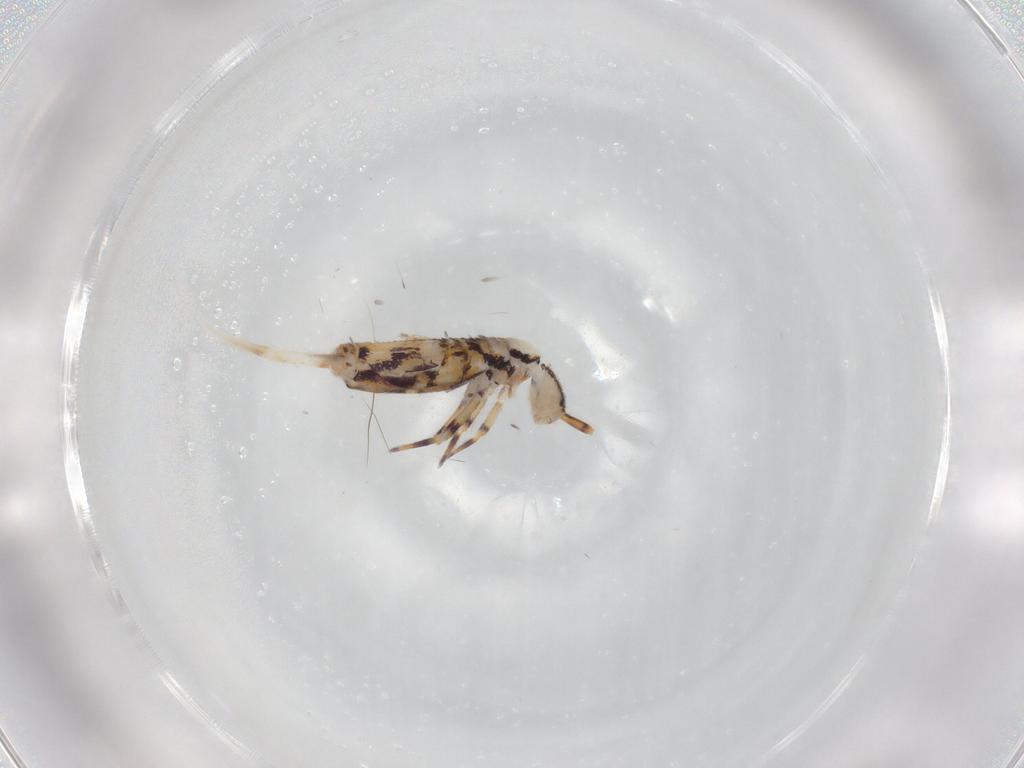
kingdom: Animalia
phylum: Arthropoda
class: Collembola
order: Entomobryomorpha
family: Entomobryidae
